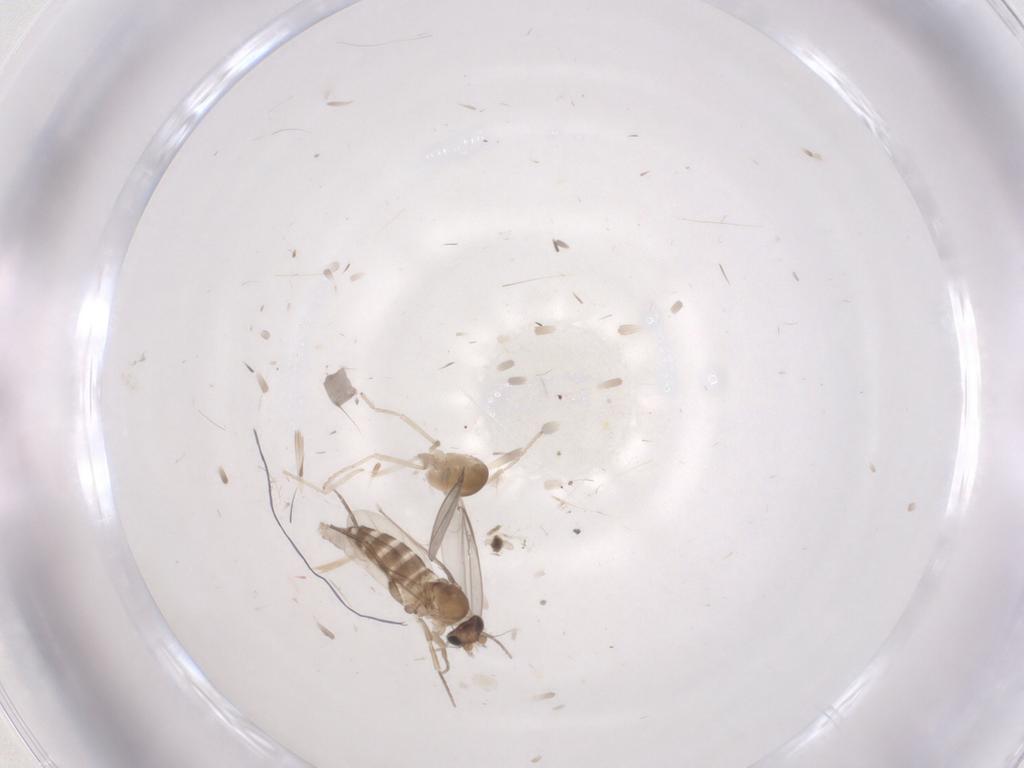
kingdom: Animalia
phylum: Arthropoda
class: Insecta
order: Diptera
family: Phoridae
